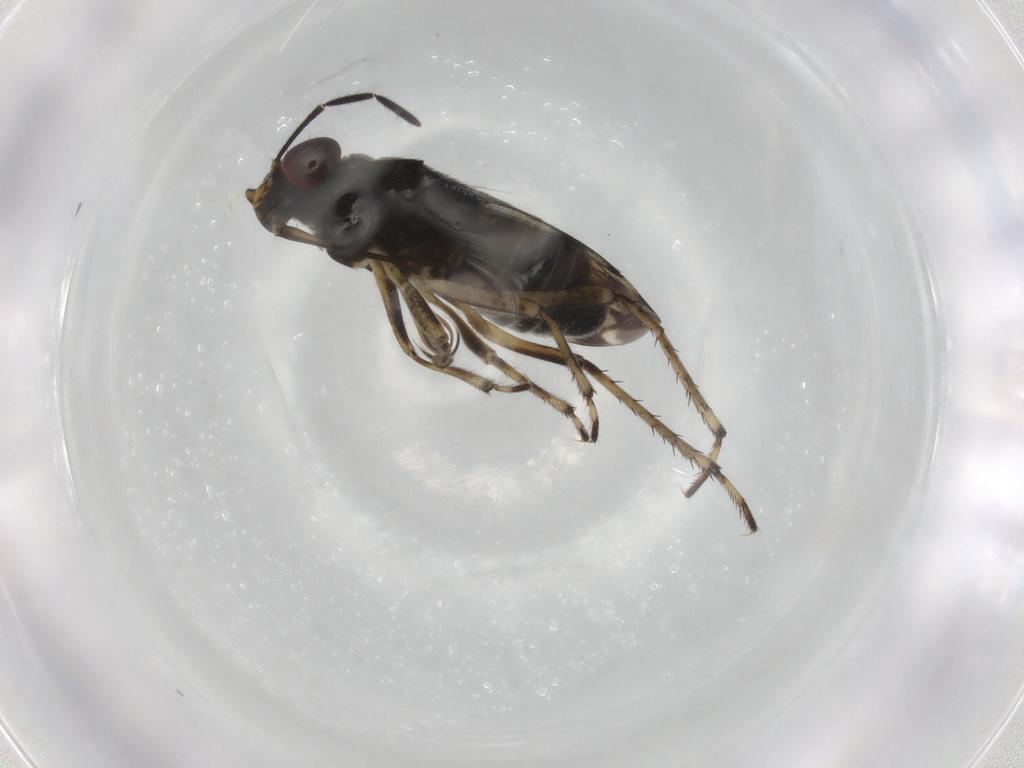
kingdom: Animalia
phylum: Arthropoda
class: Insecta
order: Hemiptera
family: Saldidae
